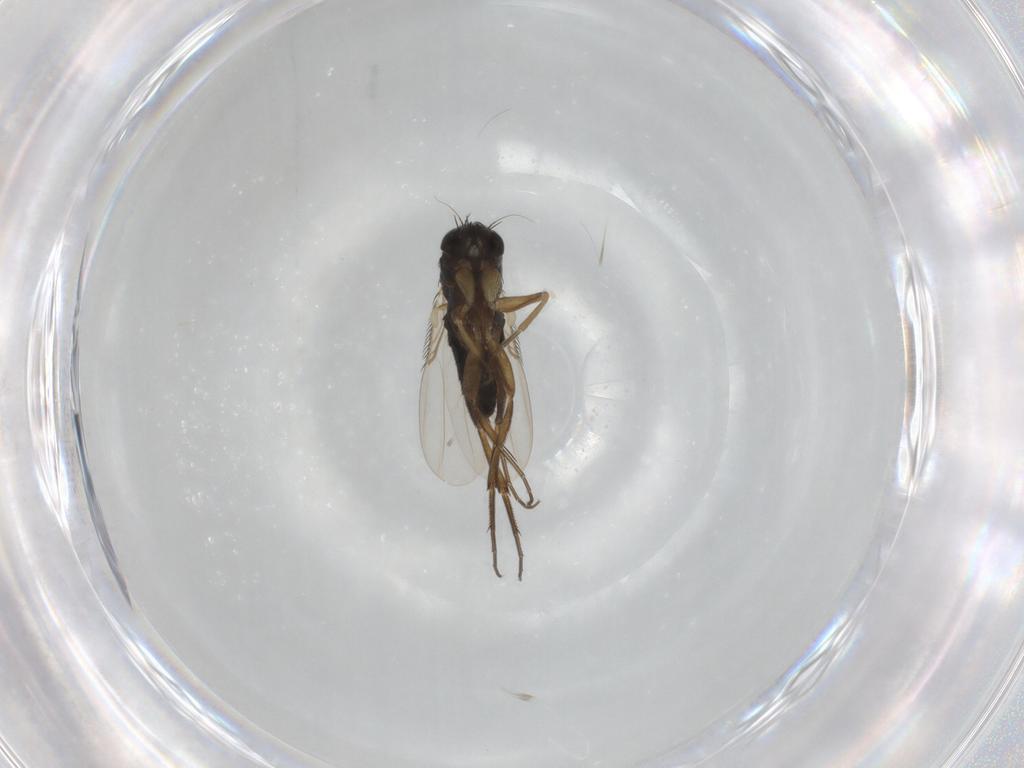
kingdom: Animalia
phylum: Arthropoda
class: Insecta
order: Diptera
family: Phoridae
